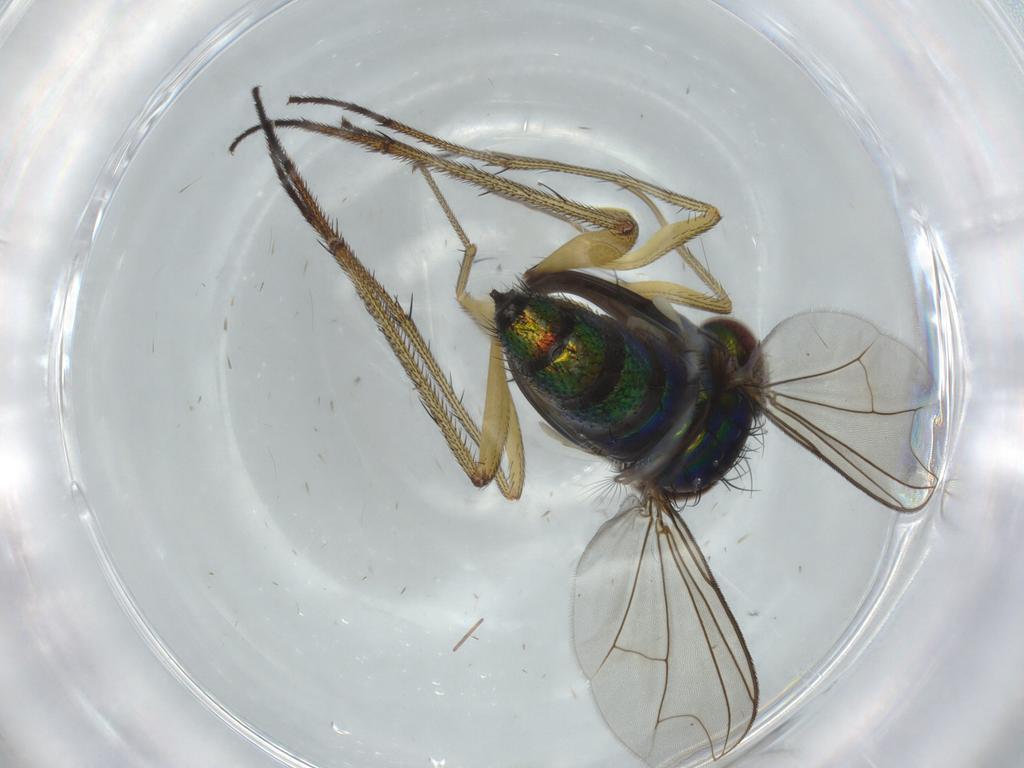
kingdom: Animalia
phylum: Arthropoda
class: Insecta
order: Diptera
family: Dolichopodidae
